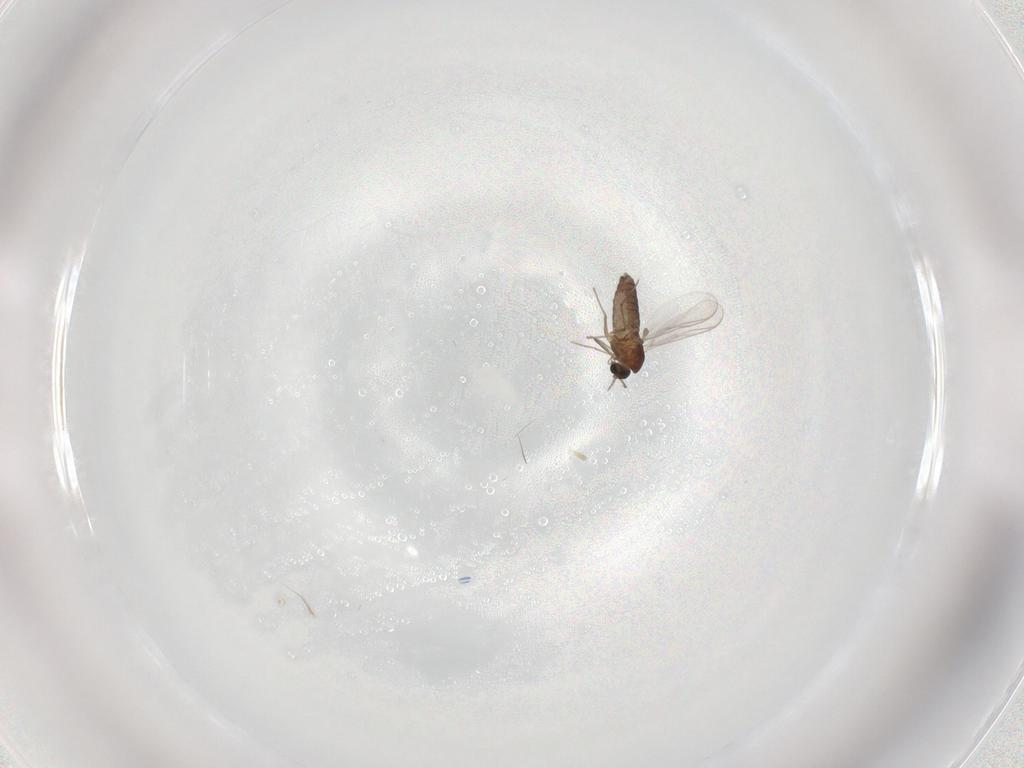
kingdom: Animalia
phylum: Arthropoda
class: Insecta
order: Diptera
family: Chironomidae
